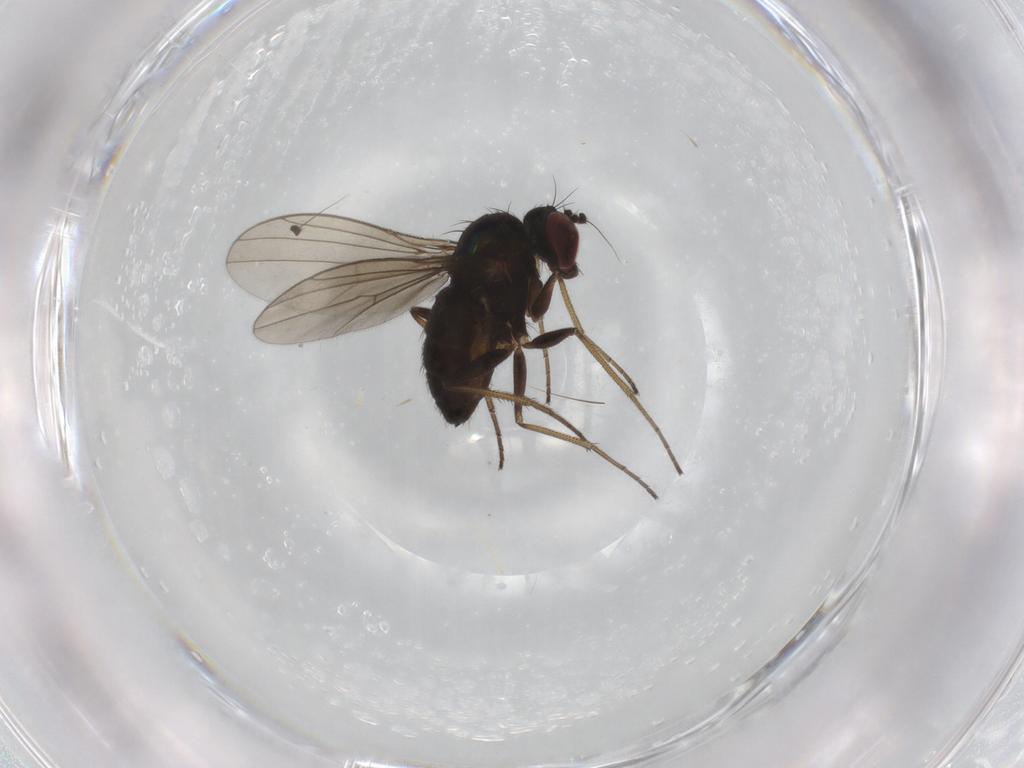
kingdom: Animalia
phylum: Arthropoda
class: Insecta
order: Diptera
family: Dolichopodidae
